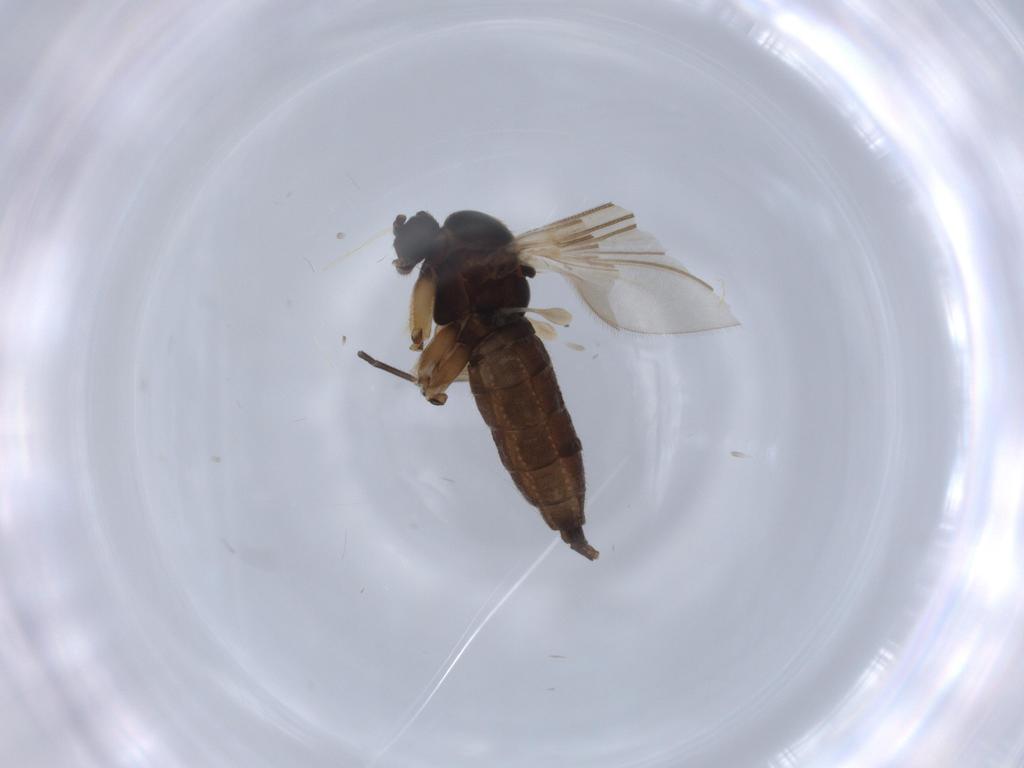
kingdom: Animalia
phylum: Arthropoda
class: Insecta
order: Diptera
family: Sciaridae
